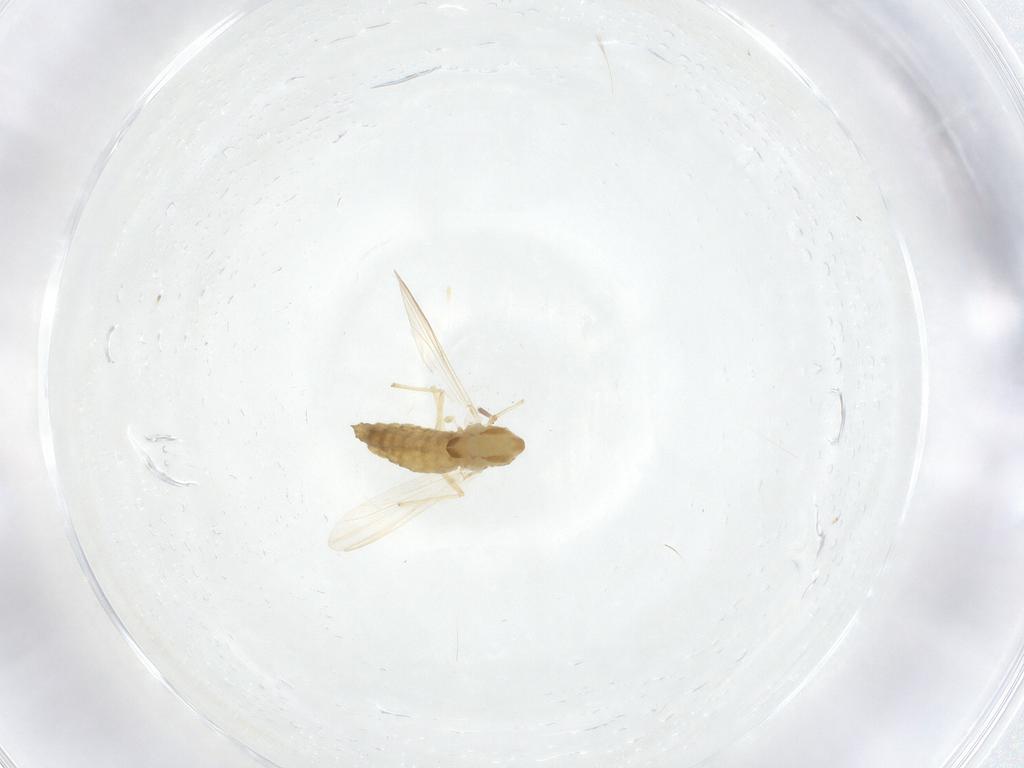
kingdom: Animalia
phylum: Arthropoda
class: Insecta
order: Diptera
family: Chironomidae
